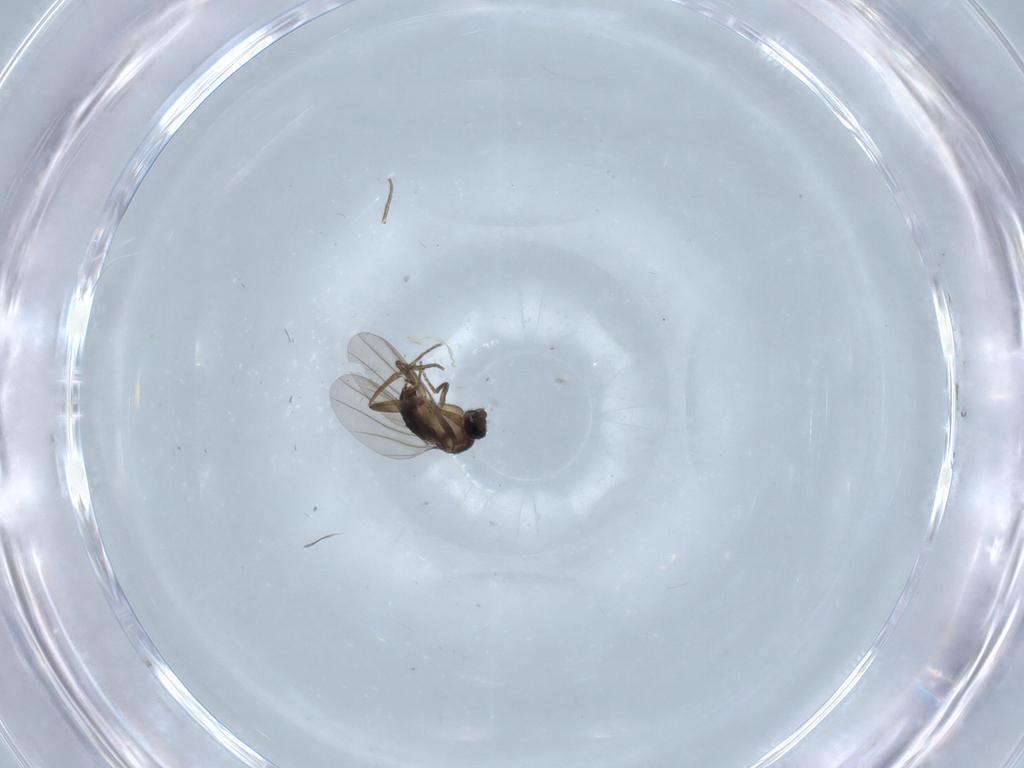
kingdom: Animalia
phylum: Arthropoda
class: Insecta
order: Diptera
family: Phoridae
